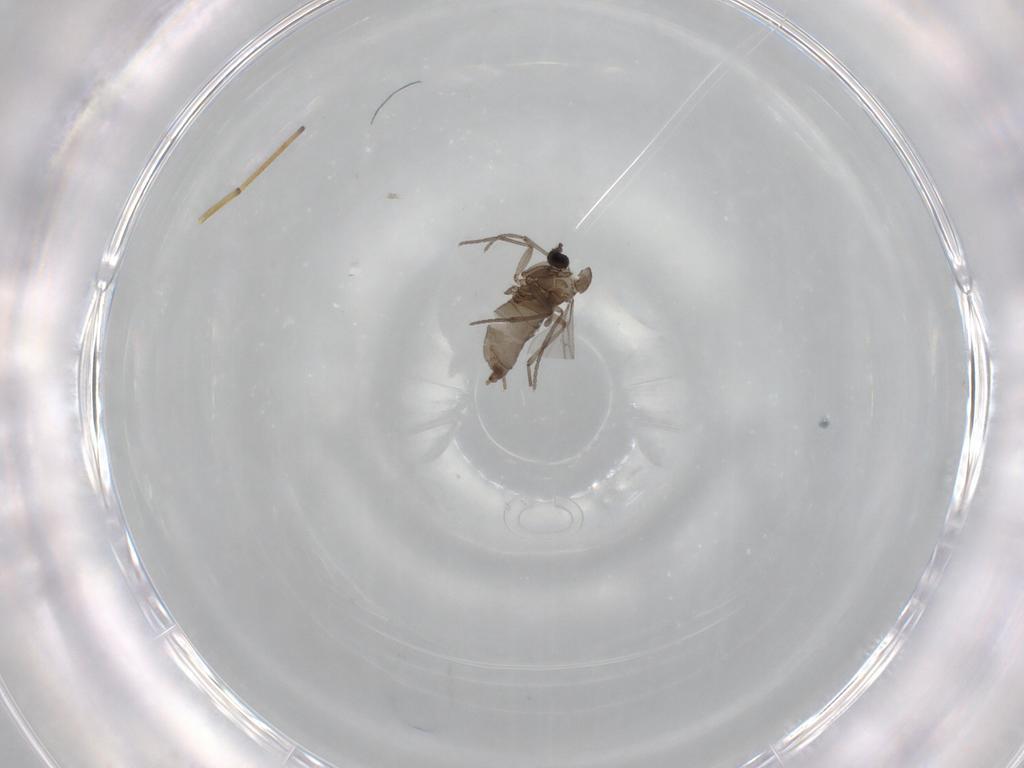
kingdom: Animalia
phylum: Arthropoda
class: Insecta
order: Diptera
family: Sciaridae
